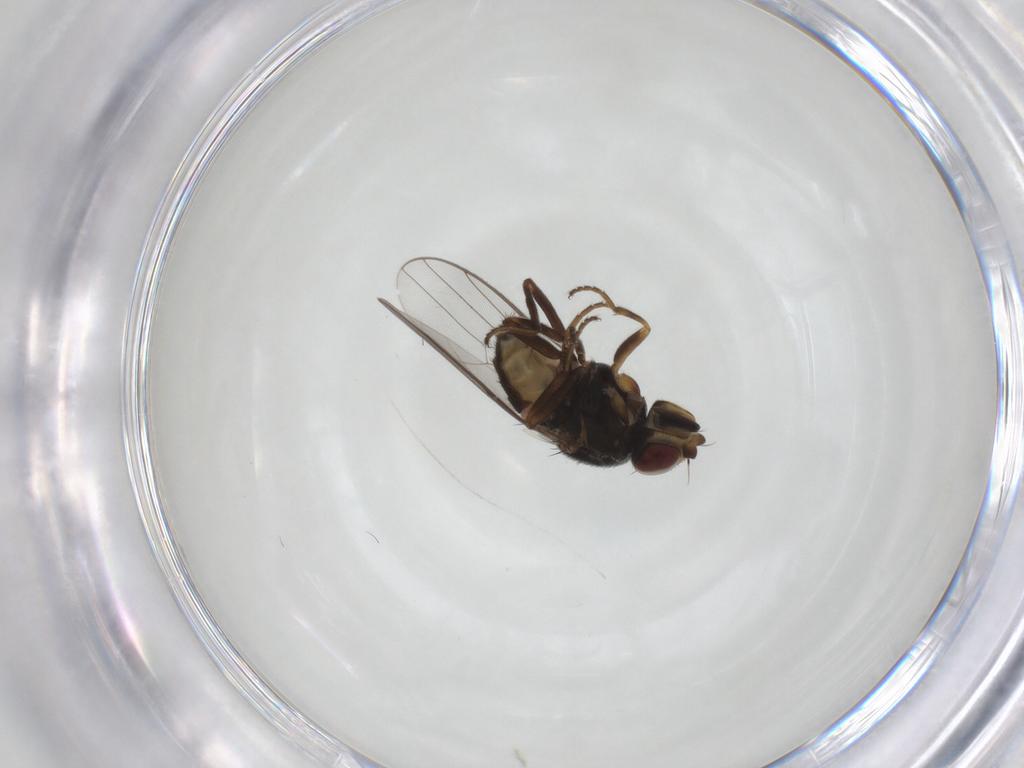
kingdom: Animalia
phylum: Arthropoda
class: Insecta
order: Diptera
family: Chloropidae
